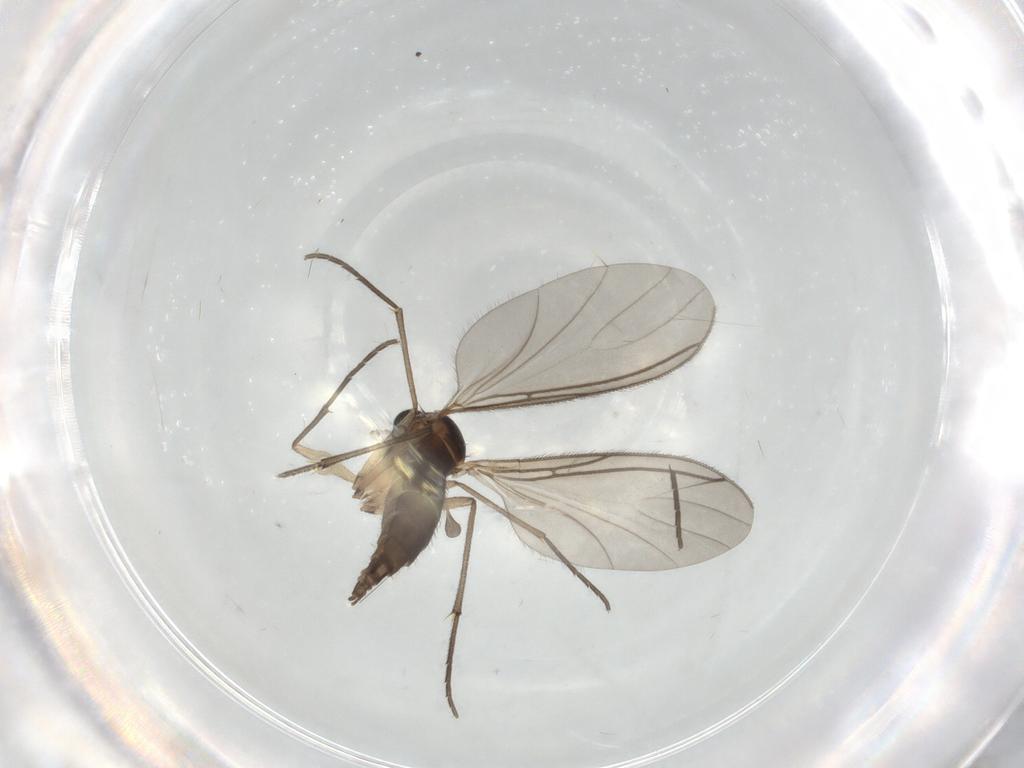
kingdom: Animalia
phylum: Arthropoda
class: Insecta
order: Diptera
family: Sciaridae
